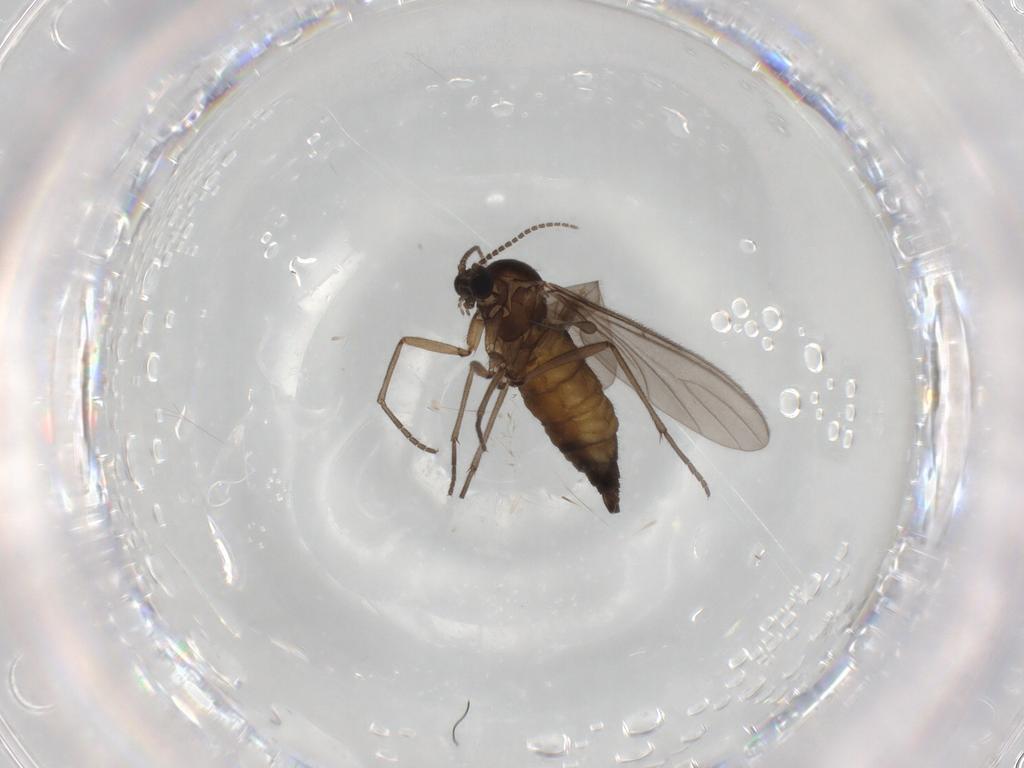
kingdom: Animalia
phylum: Arthropoda
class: Insecta
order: Diptera
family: Sciaridae
